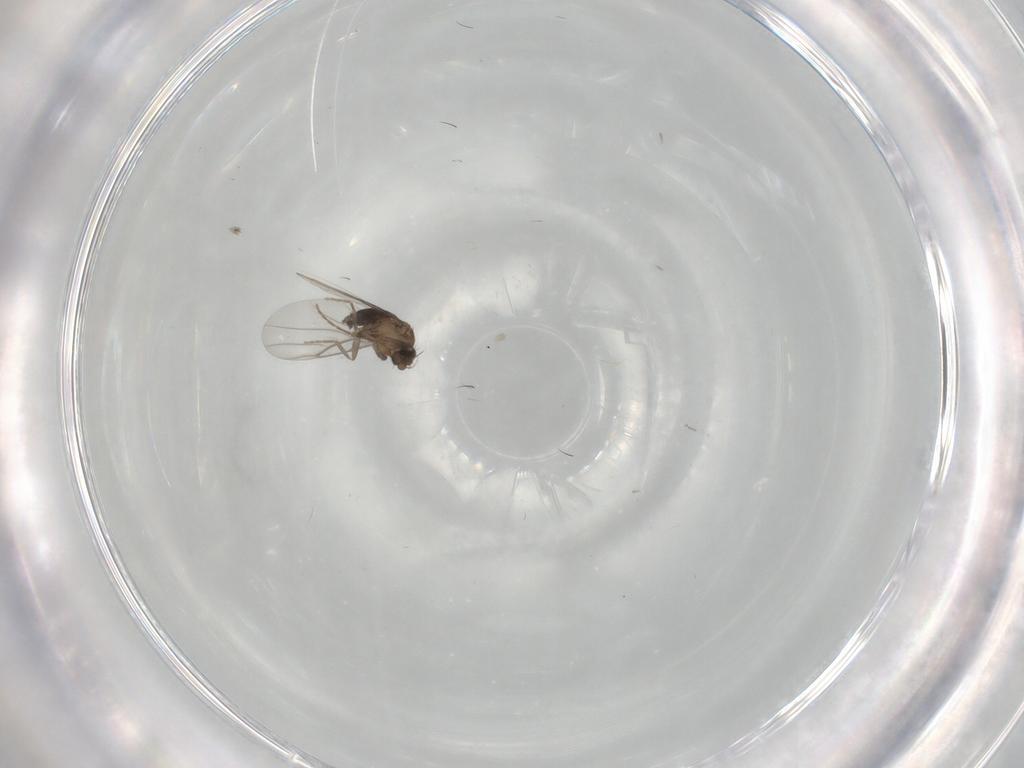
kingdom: Animalia
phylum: Arthropoda
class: Insecta
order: Diptera
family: Phoridae
